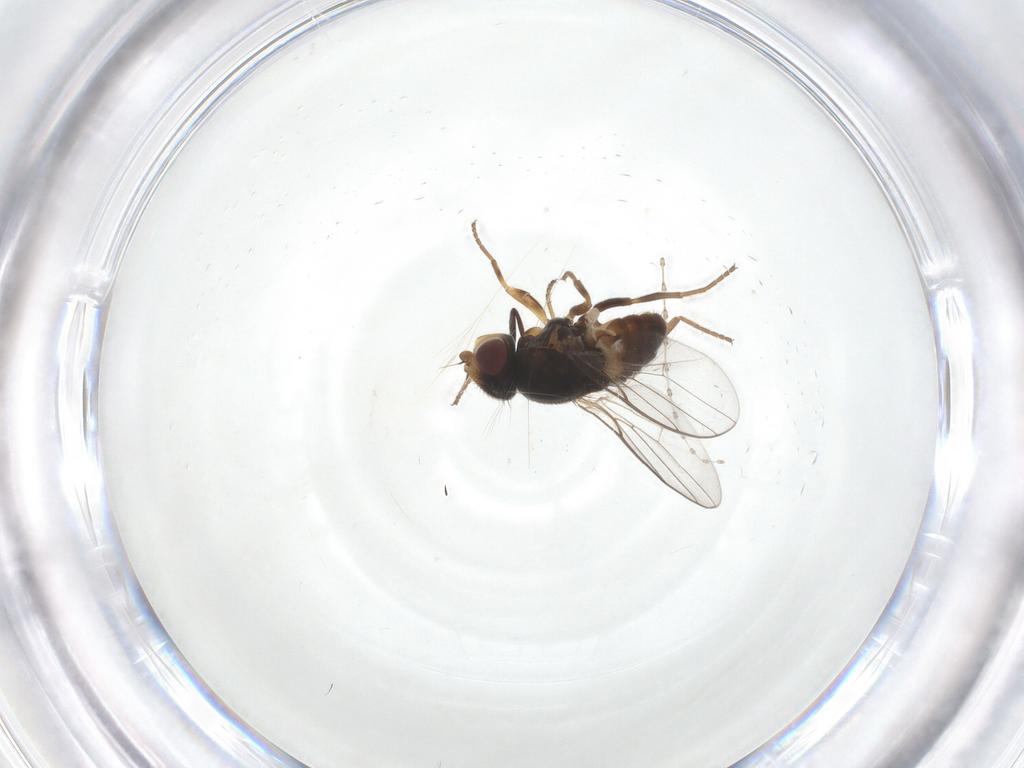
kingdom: Animalia
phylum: Arthropoda
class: Insecta
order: Diptera
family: Chloropidae
